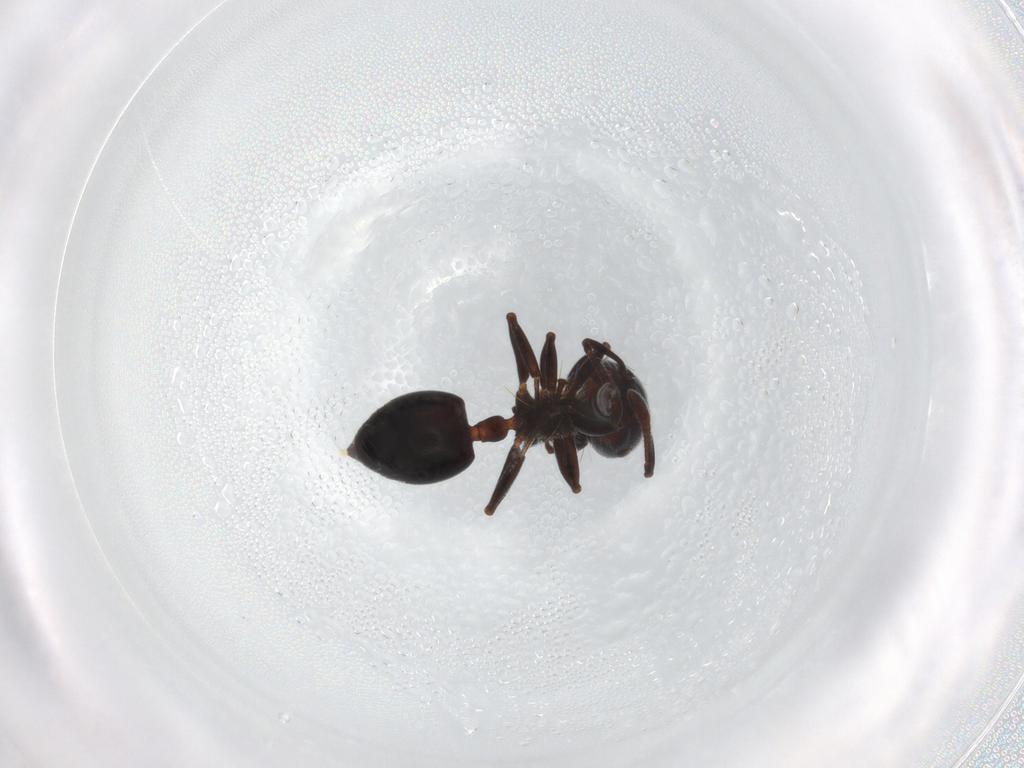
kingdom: Animalia
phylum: Arthropoda
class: Insecta
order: Hymenoptera
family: Formicidae
